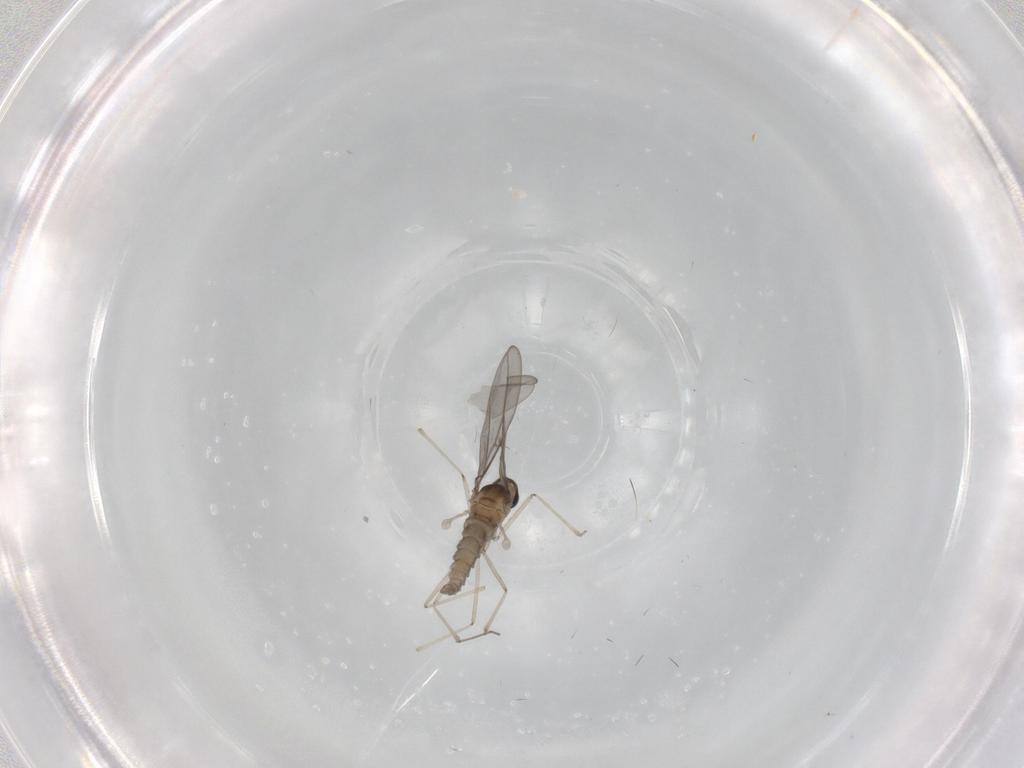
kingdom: Animalia
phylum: Arthropoda
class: Insecta
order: Diptera
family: Cecidomyiidae
